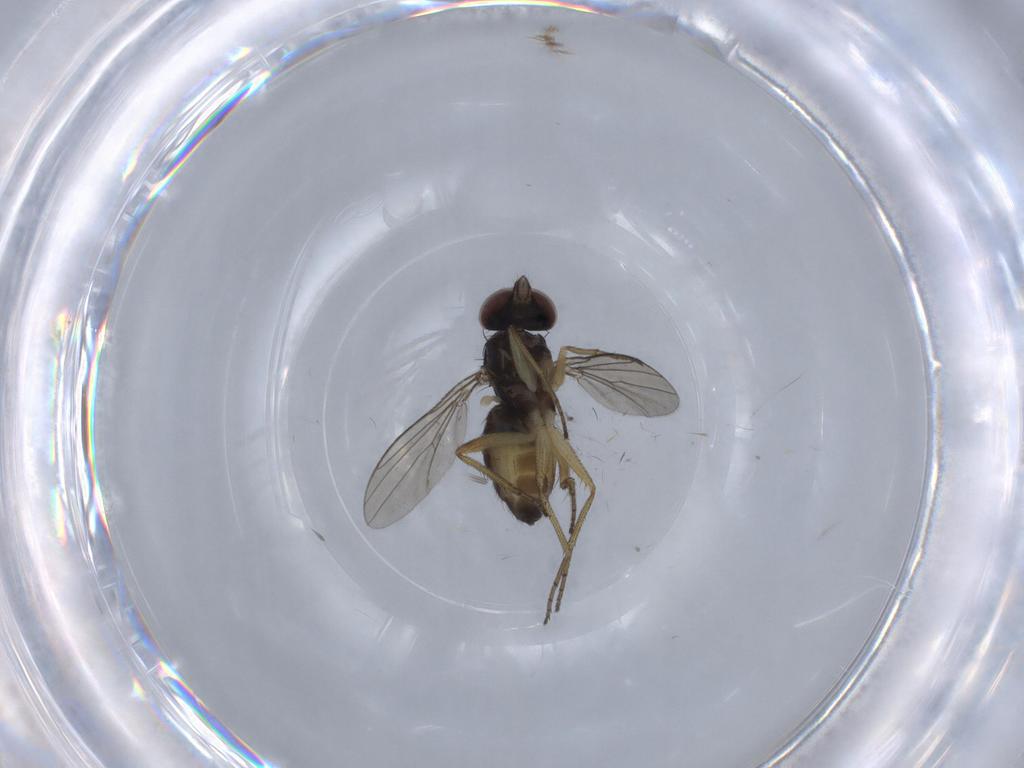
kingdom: Animalia
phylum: Arthropoda
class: Insecta
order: Diptera
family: Dolichopodidae
